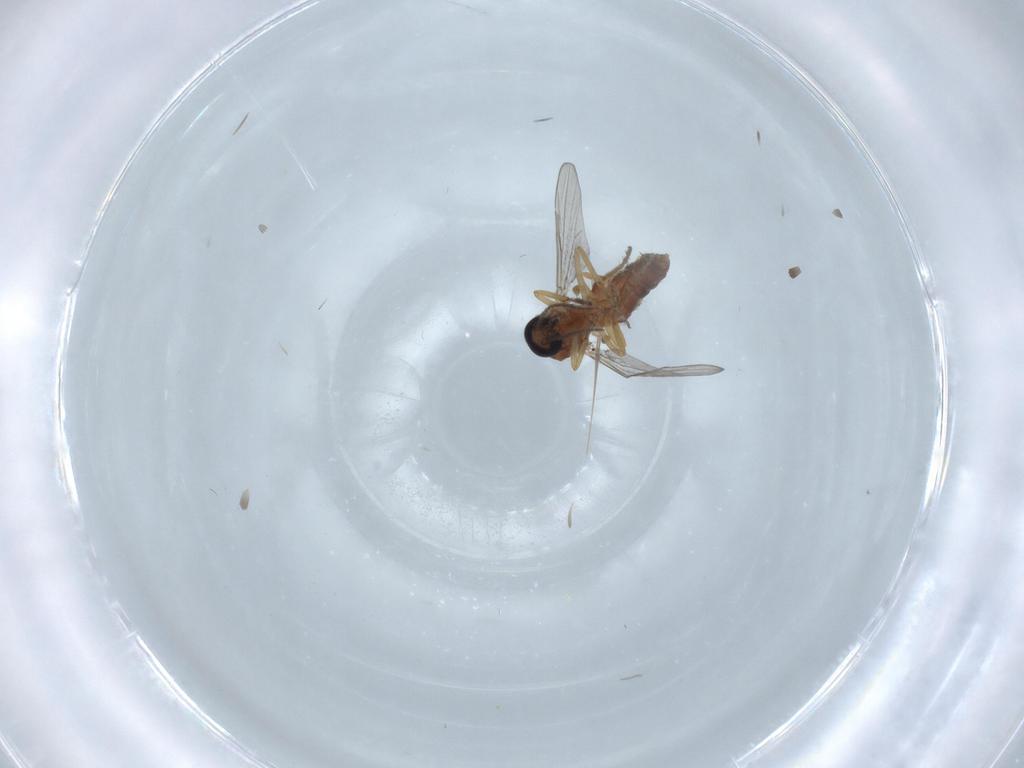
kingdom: Animalia
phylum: Arthropoda
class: Insecta
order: Diptera
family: Ceratopogonidae
